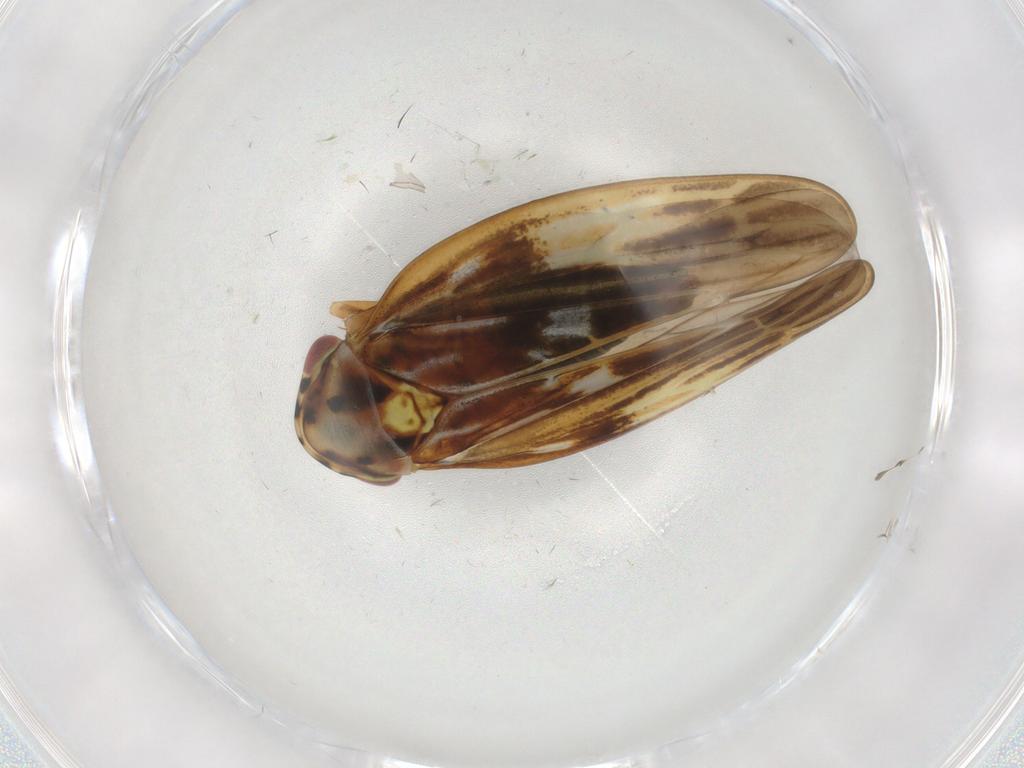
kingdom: Animalia
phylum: Arthropoda
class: Insecta
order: Hemiptera
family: Cicadellidae
